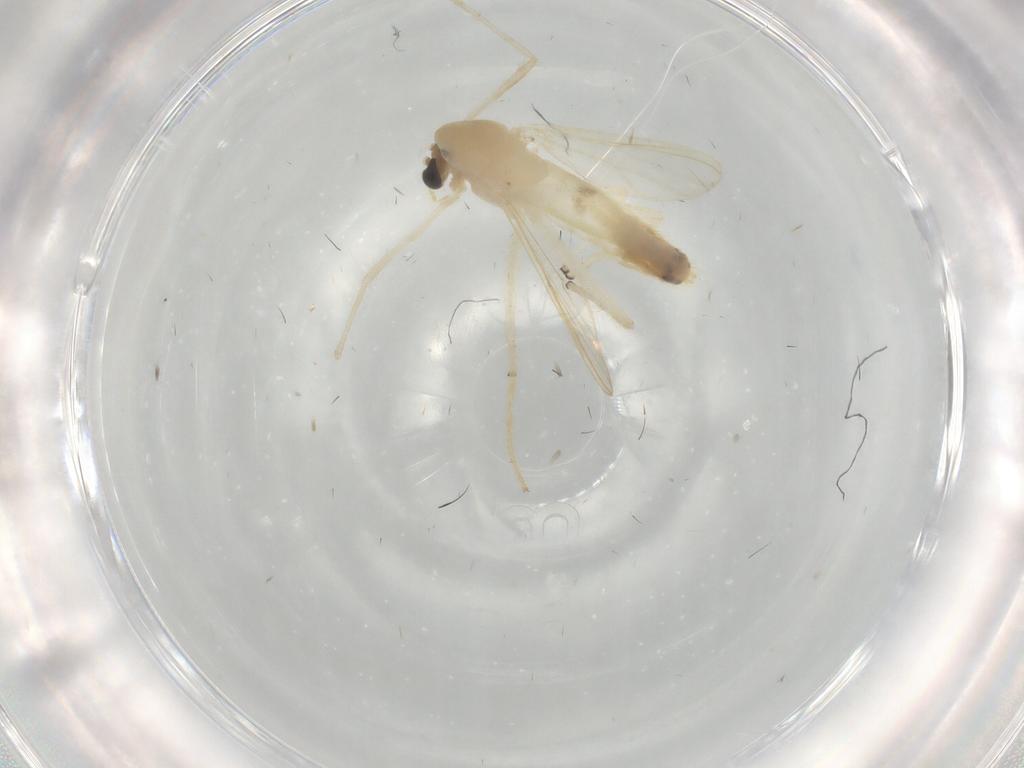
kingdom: Animalia
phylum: Arthropoda
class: Insecta
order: Diptera
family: Chironomidae
